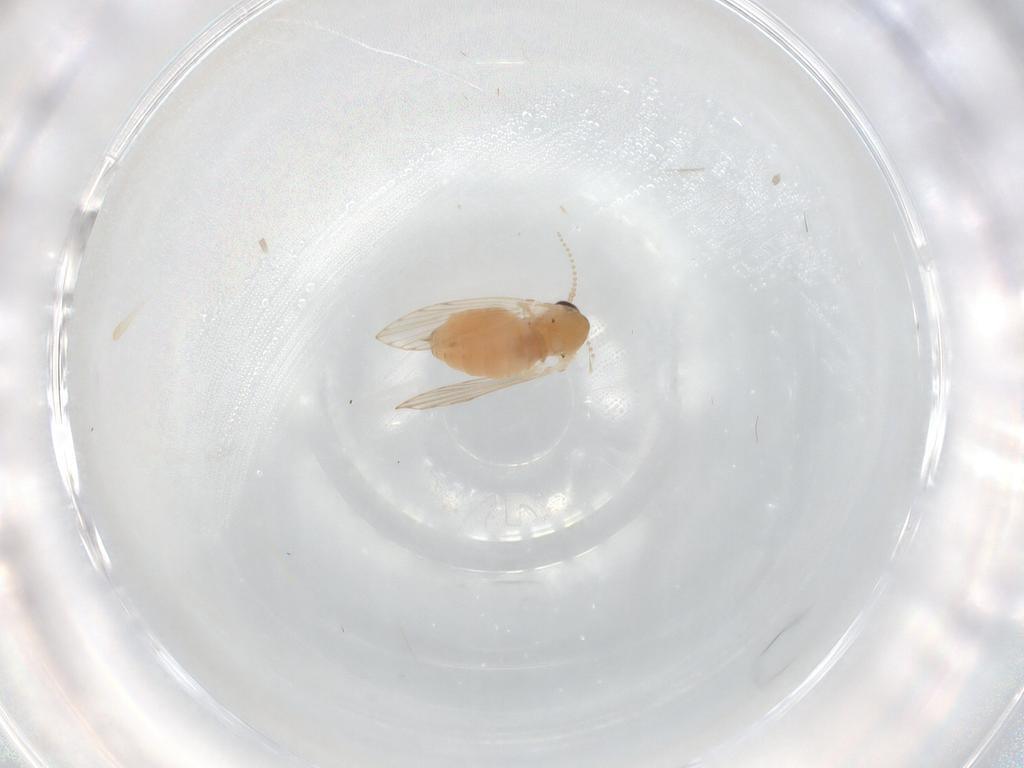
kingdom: Animalia
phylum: Arthropoda
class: Insecta
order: Diptera
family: Psychodidae
